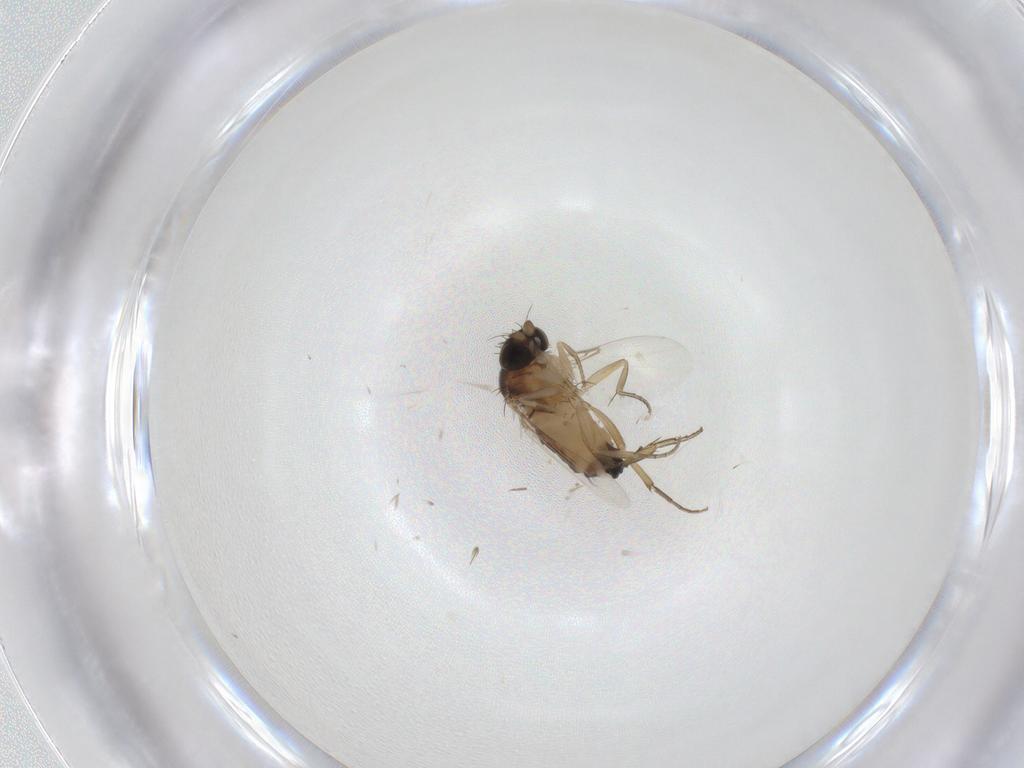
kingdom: Animalia
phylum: Arthropoda
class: Insecta
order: Diptera
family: Phoridae
